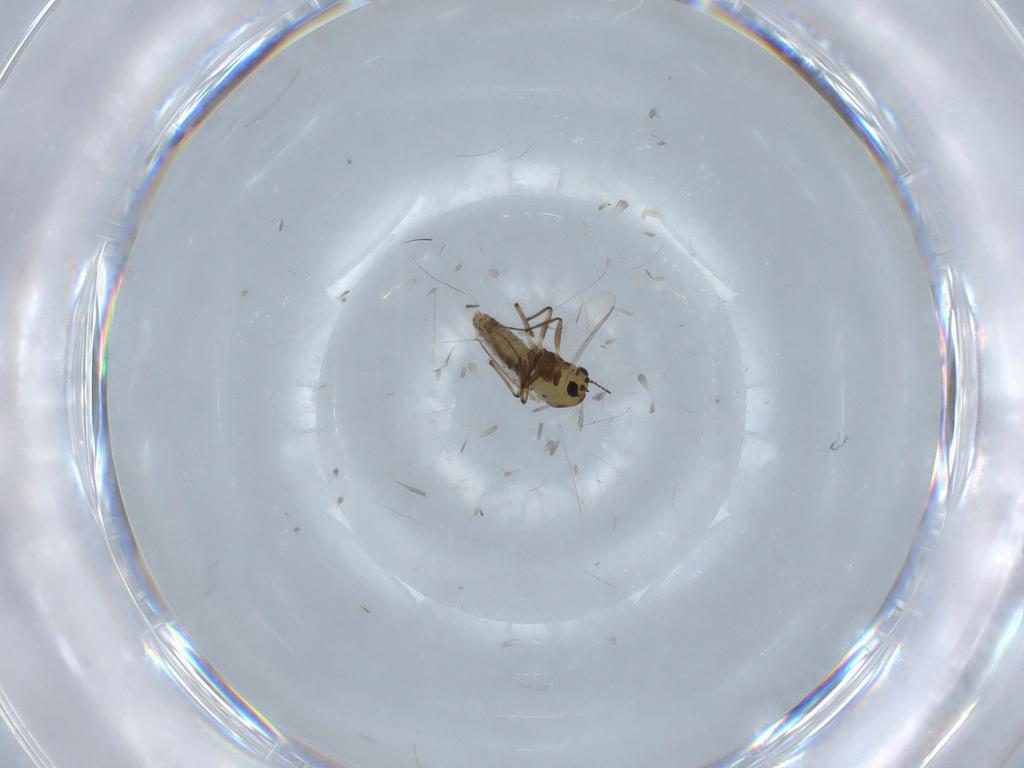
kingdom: Animalia
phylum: Arthropoda
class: Insecta
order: Diptera
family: Chironomidae
